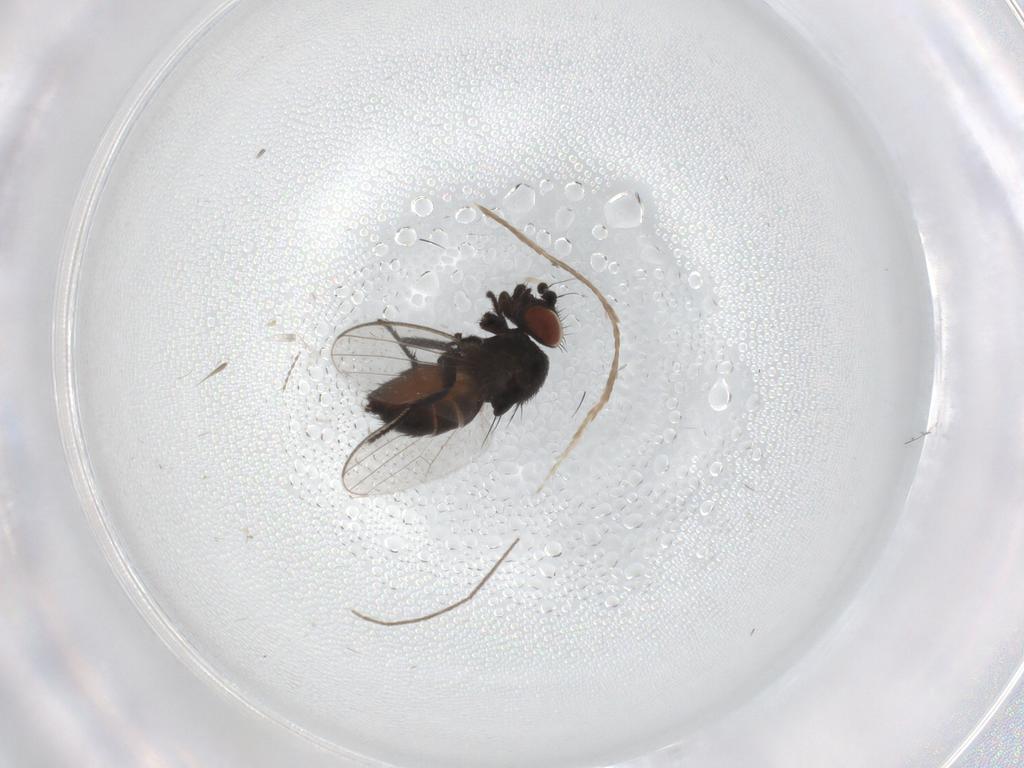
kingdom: Animalia
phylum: Arthropoda
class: Insecta
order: Diptera
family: Milichiidae
